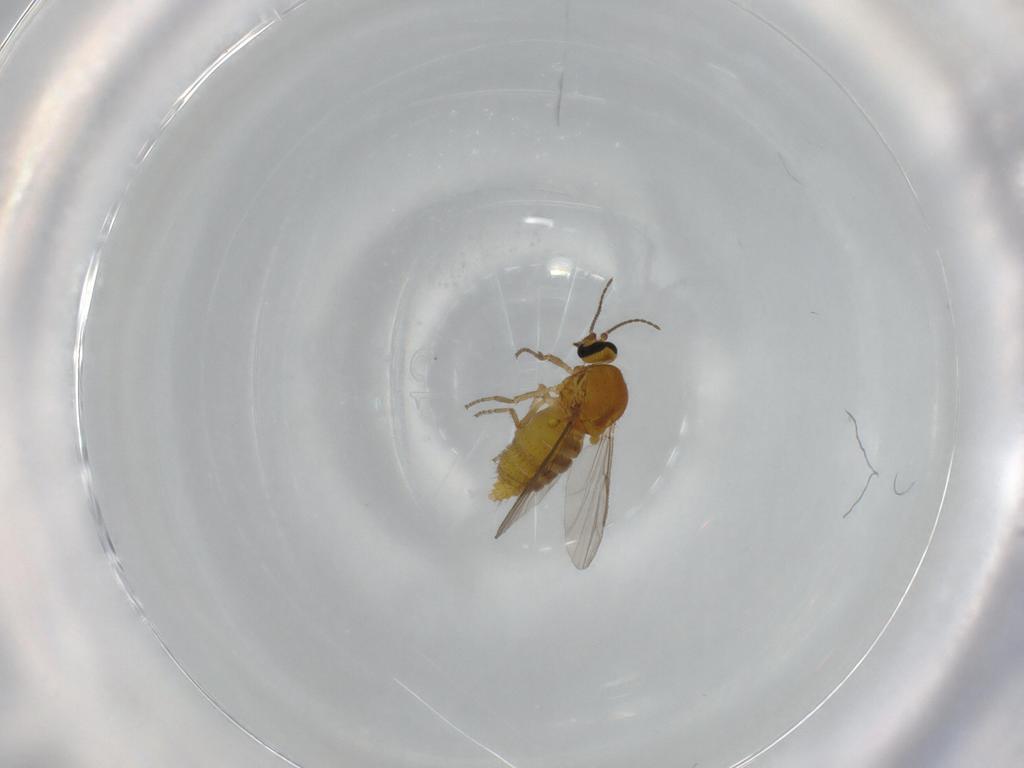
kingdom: Animalia
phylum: Arthropoda
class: Insecta
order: Diptera
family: Ceratopogonidae
